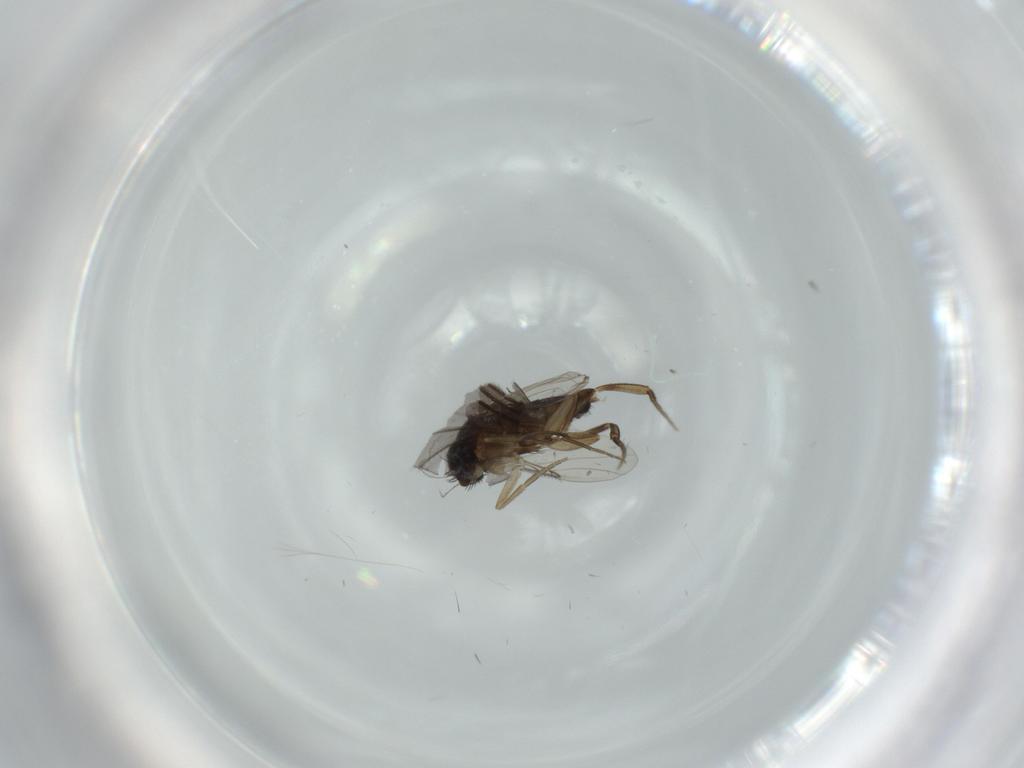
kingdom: Animalia
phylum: Arthropoda
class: Insecta
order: Diptera
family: Phoridae
